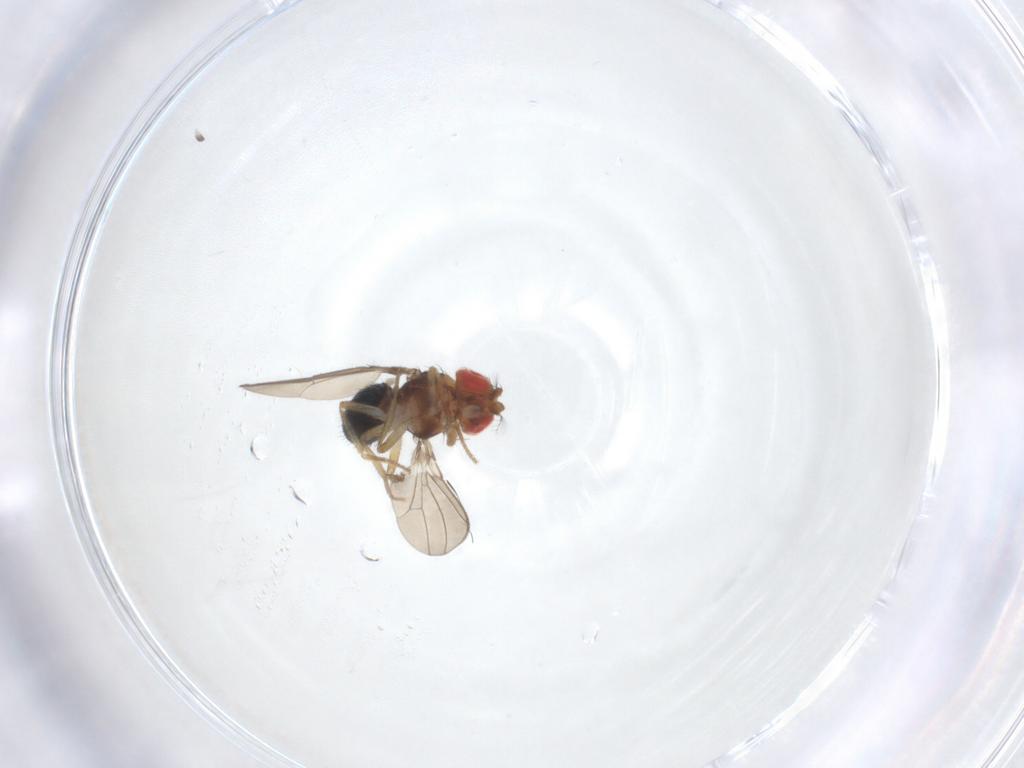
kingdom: Animalia
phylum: Arthropoda
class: Insecta
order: Diptera
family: Drosophilidae
